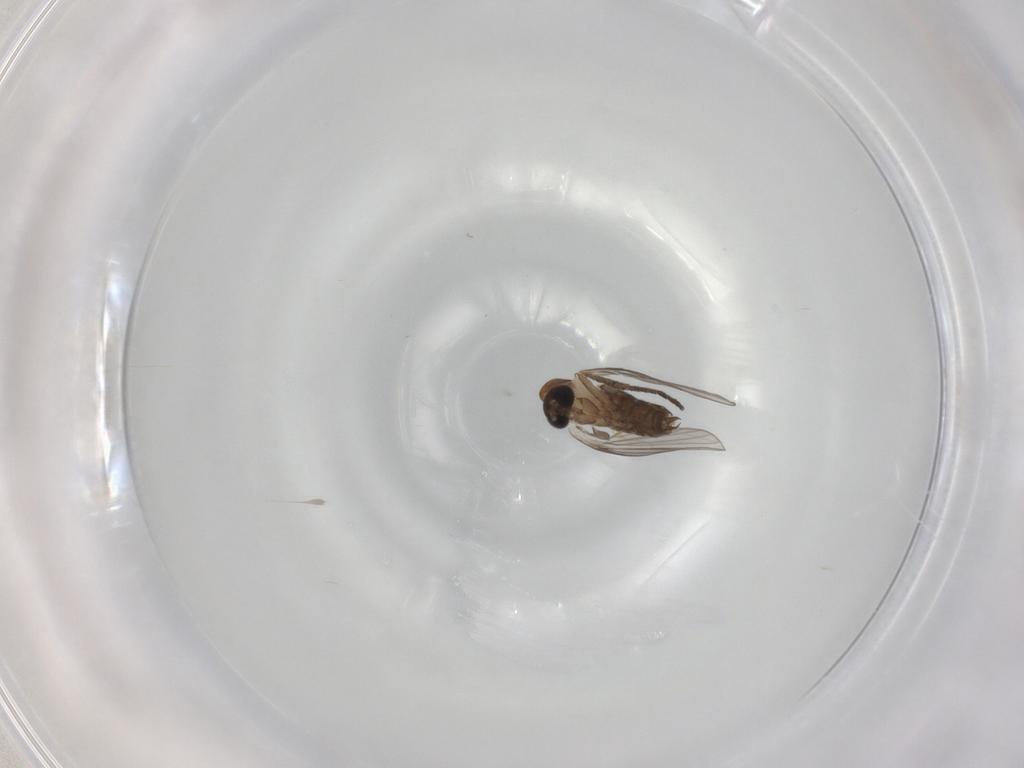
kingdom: Animalia
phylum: Arthropoda
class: Insecta
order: Diptera
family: Psychodidae
